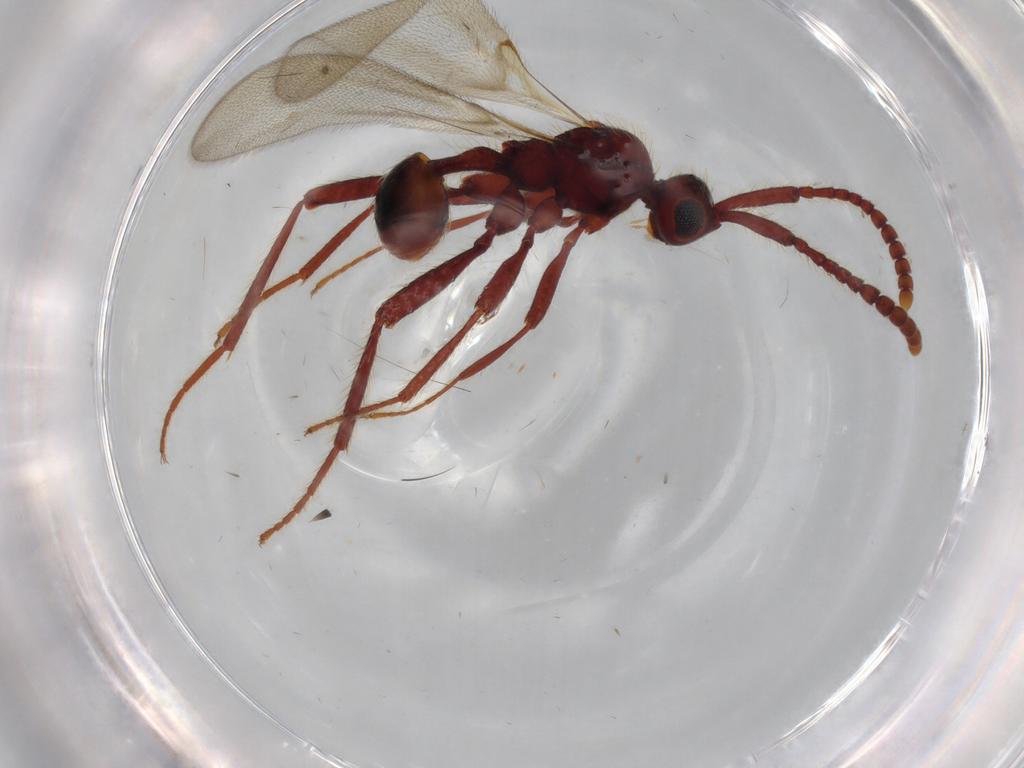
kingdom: Animalia
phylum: Arthropoda
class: Insecta
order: Hymenoptera
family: Diapriidae
